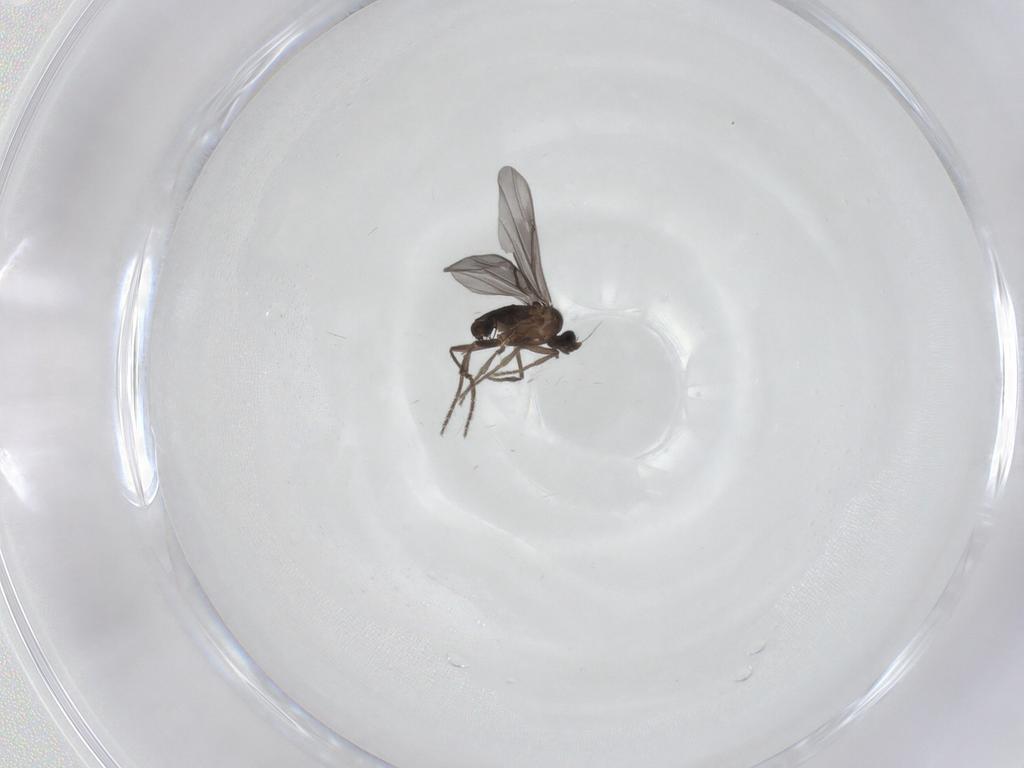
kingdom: Animalia
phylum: Arthropoda
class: Insecta
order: Diptera
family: Phoridae
